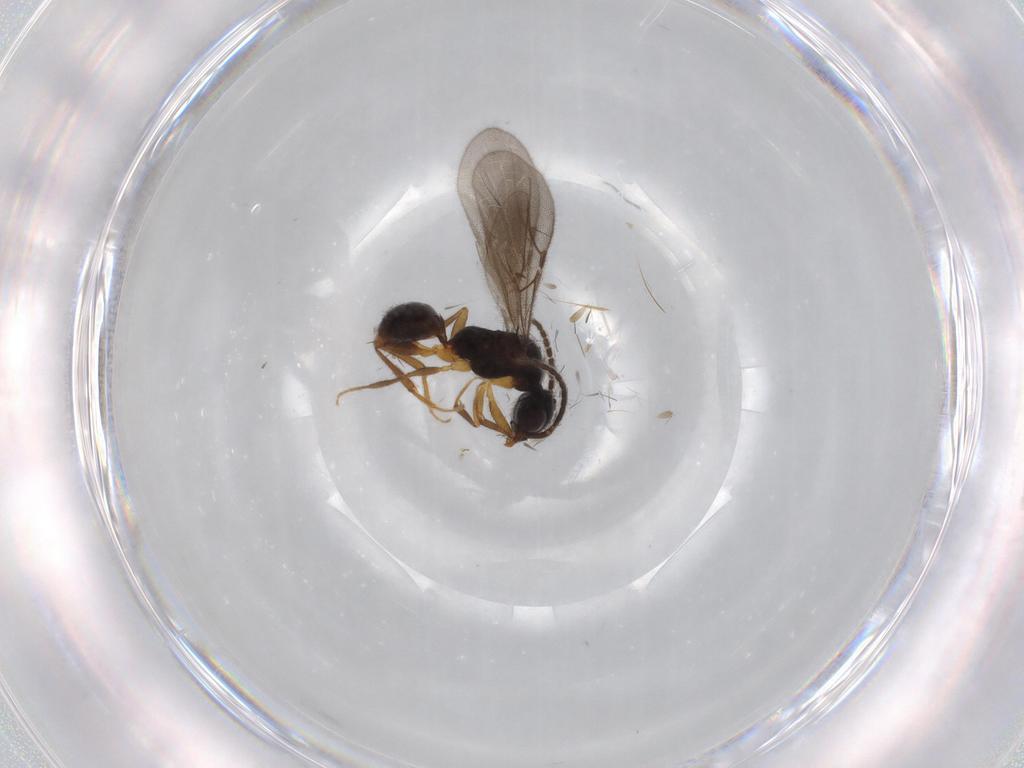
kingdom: Animalia
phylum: Arthropoda
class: Insecta
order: Hymenoptera
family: Bethylidae
